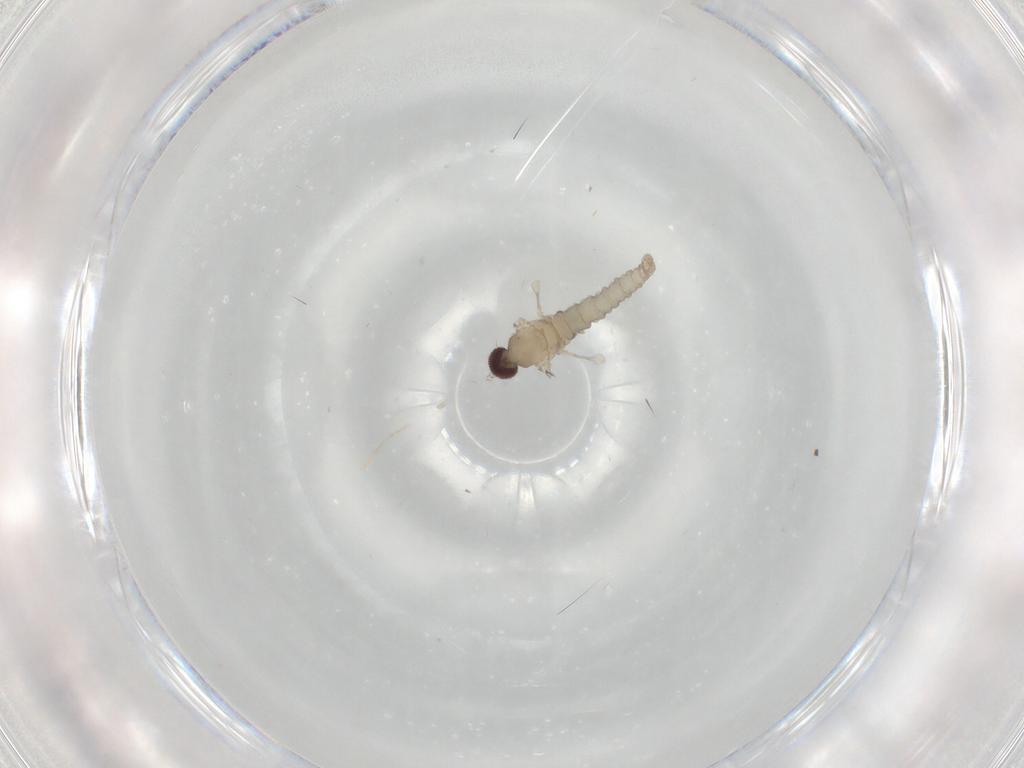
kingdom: Animalia
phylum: Arthropoda
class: Insecta
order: Diptera
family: Cecidomyiidae
